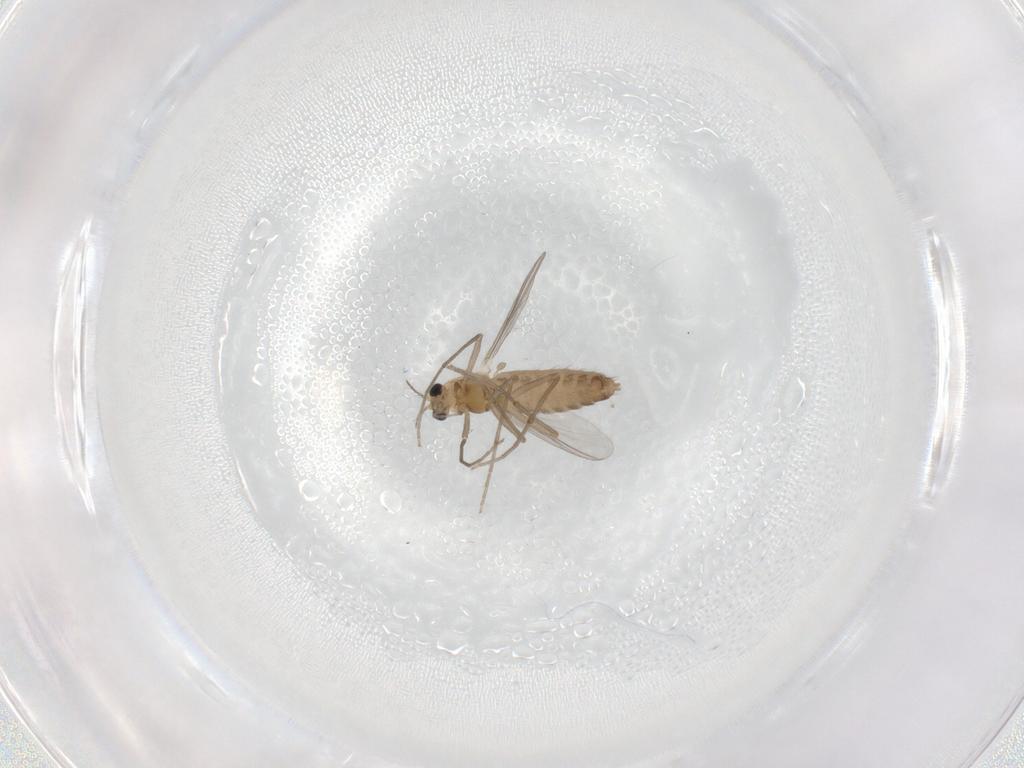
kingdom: Animalia
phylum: Arthropoda
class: Insecta
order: Diptera
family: Chironomidae
